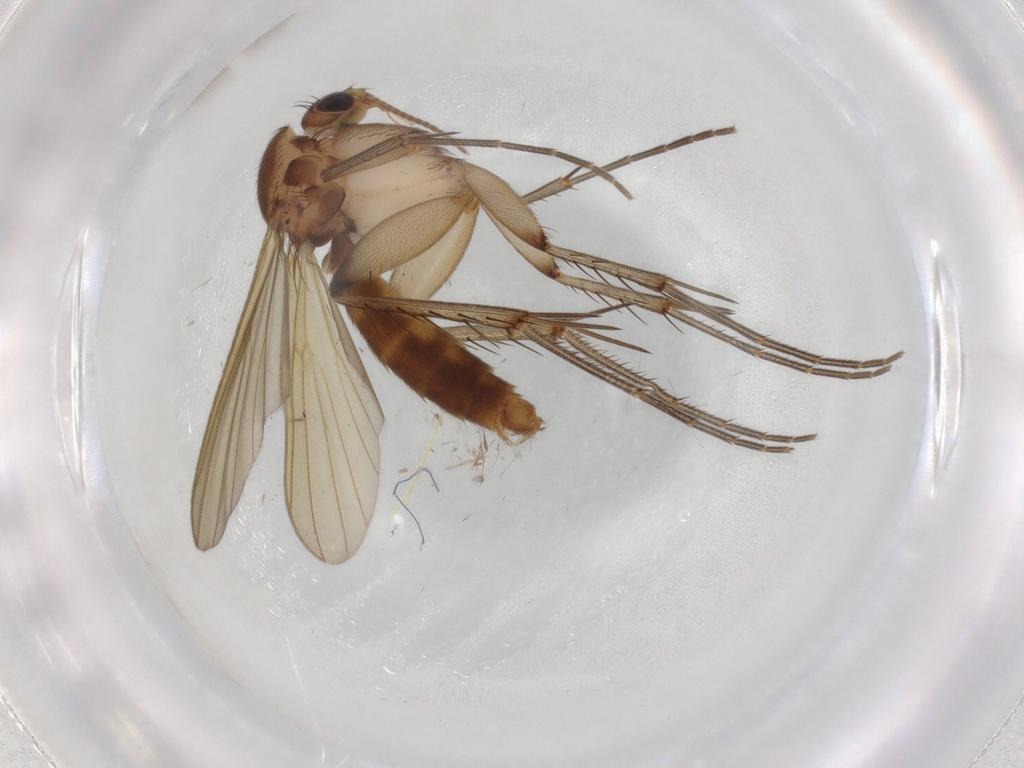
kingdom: Animalia
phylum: Arthropoda
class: Insecta
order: Diptera
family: Mycetophilidae
